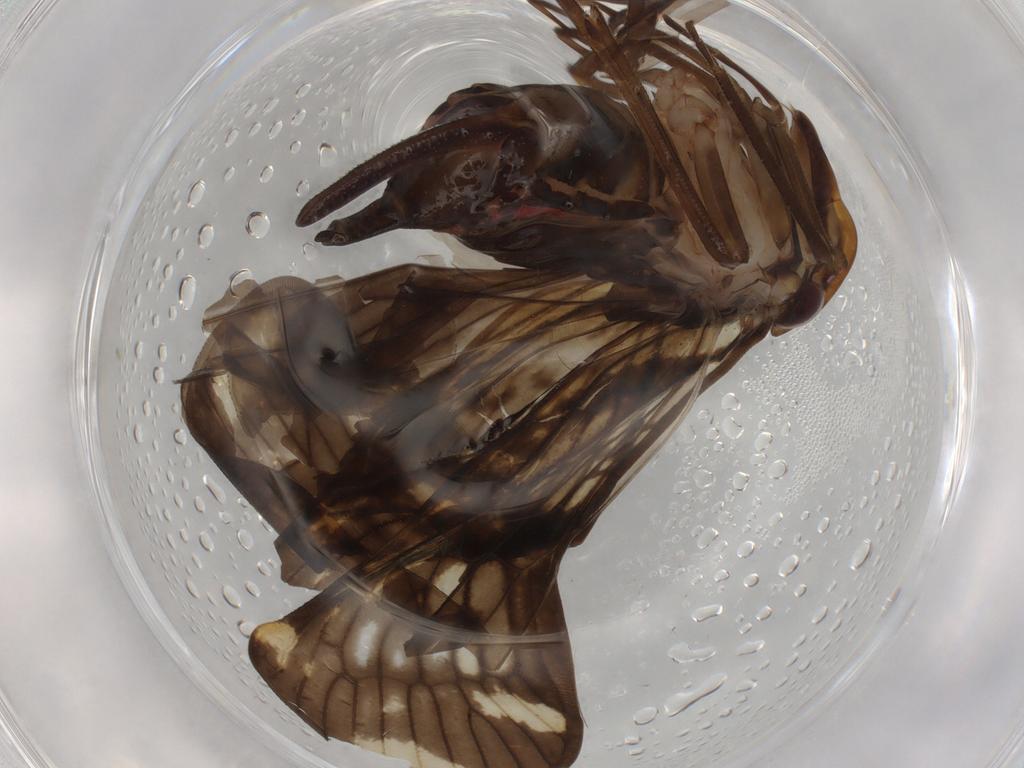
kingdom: Animalia
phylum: Arthropoda
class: Insecta
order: Hemiptera
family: Cixiidae
